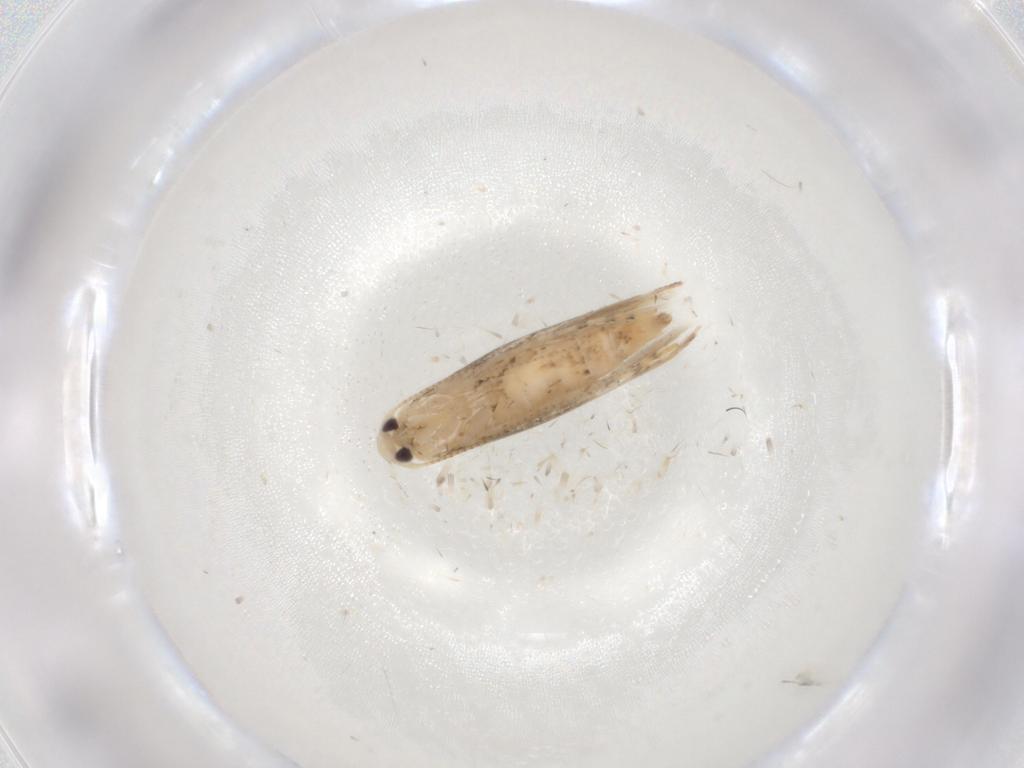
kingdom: Animalia
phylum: Arthropoda
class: Insecta
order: Lepidoptera
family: Gracillariidae
